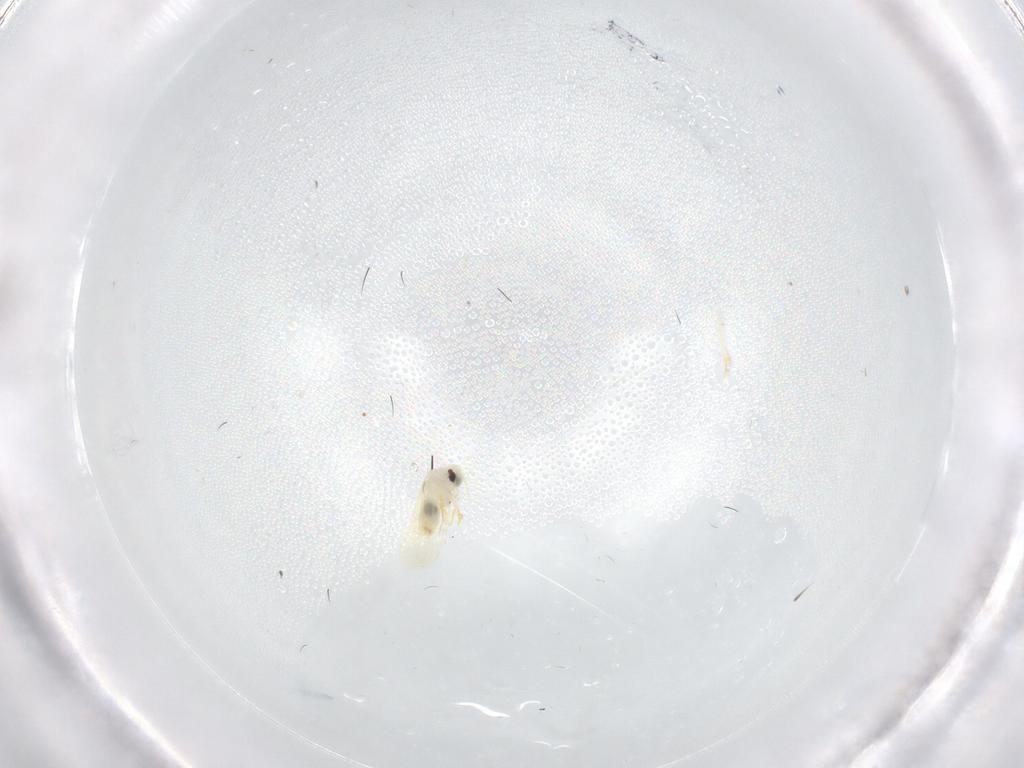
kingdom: Animalia
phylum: Arthropoda
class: Insecta
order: Hemiptera
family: Aleyrodidae
